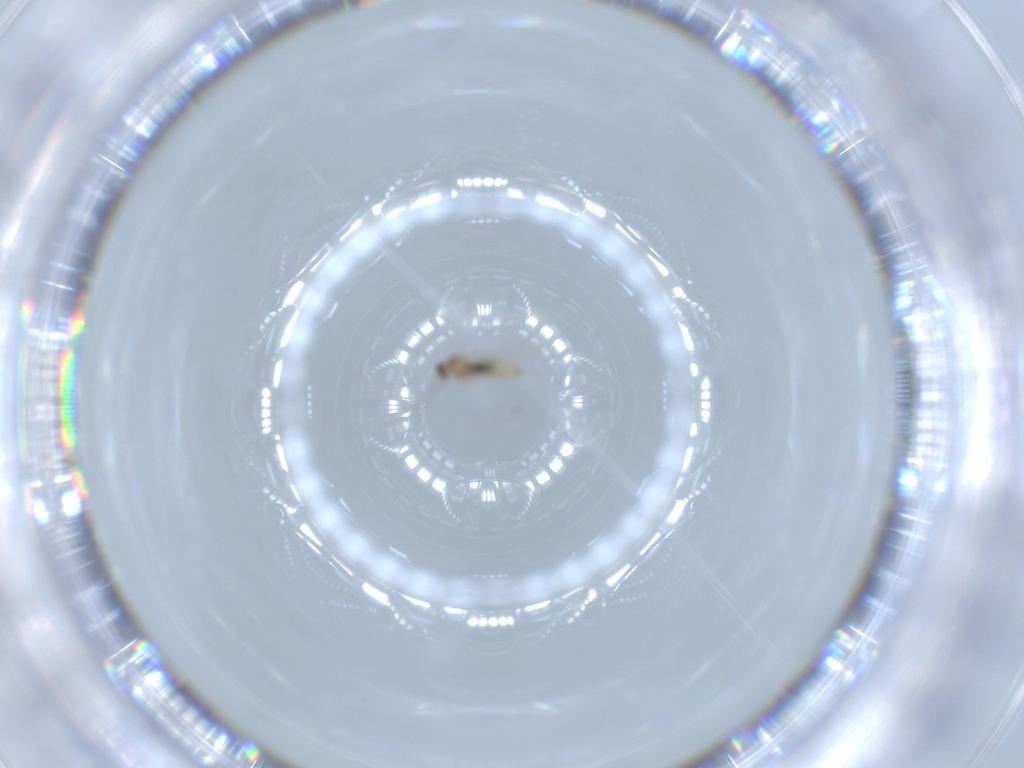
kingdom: Animalia
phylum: Arthropoda
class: Insecta
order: Diptera
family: Cecidomyiidae
